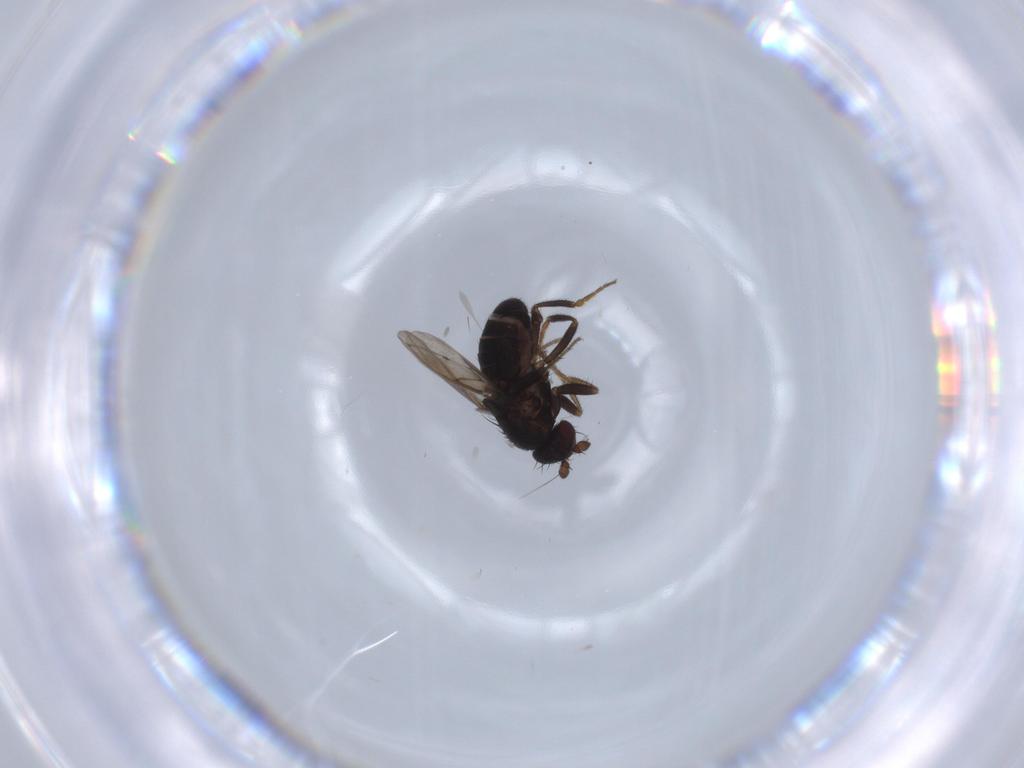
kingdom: Animalia
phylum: Arthropoda
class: Insecta
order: Diptera
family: Sphaeroceridae
